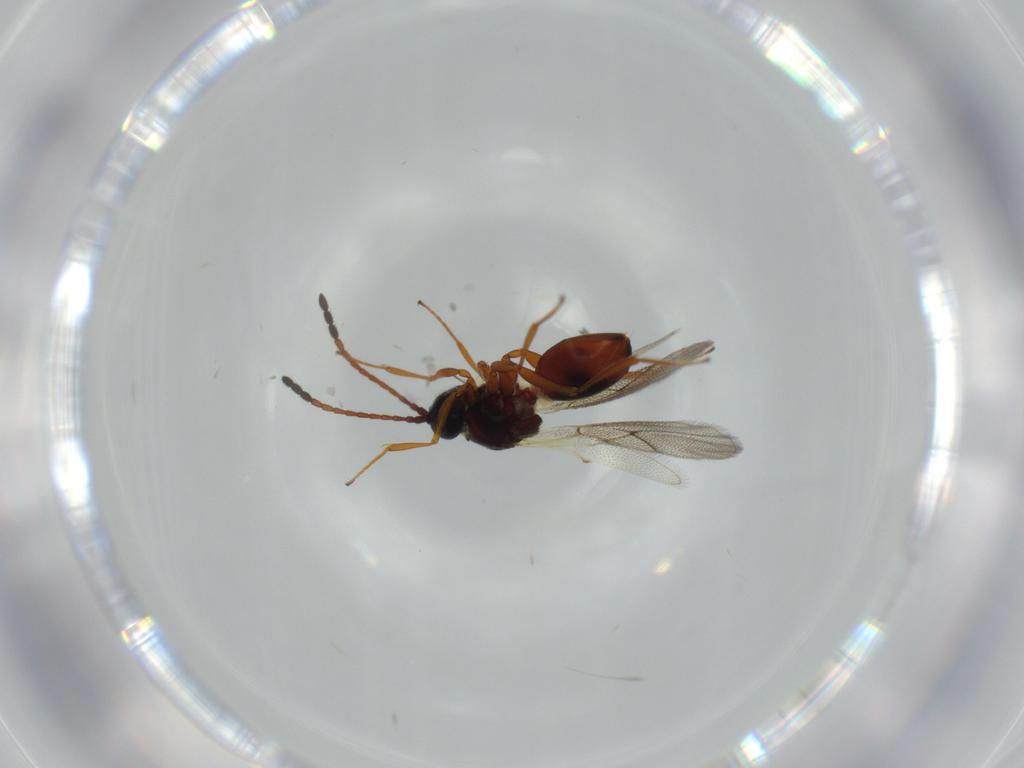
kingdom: Animalia
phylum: Arthropoda
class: Insecta
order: Hymenoptera
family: Figitidae
